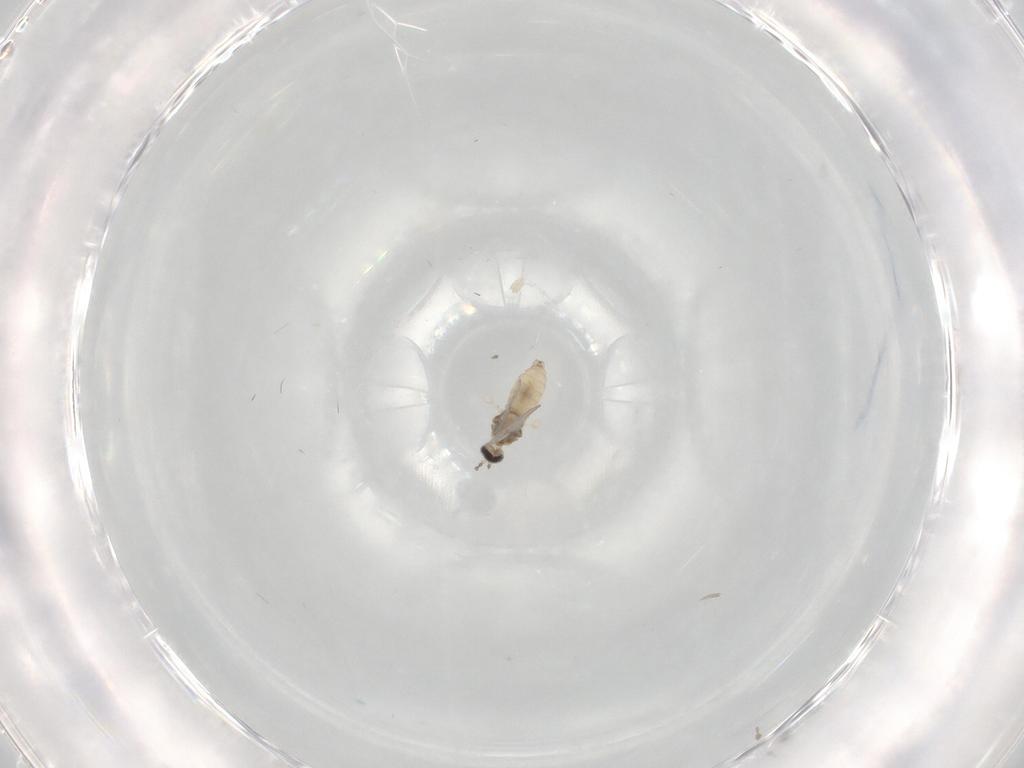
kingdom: Animalia
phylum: Arthropoda
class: Insecta
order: Diptera
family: Cecidomyiidae
